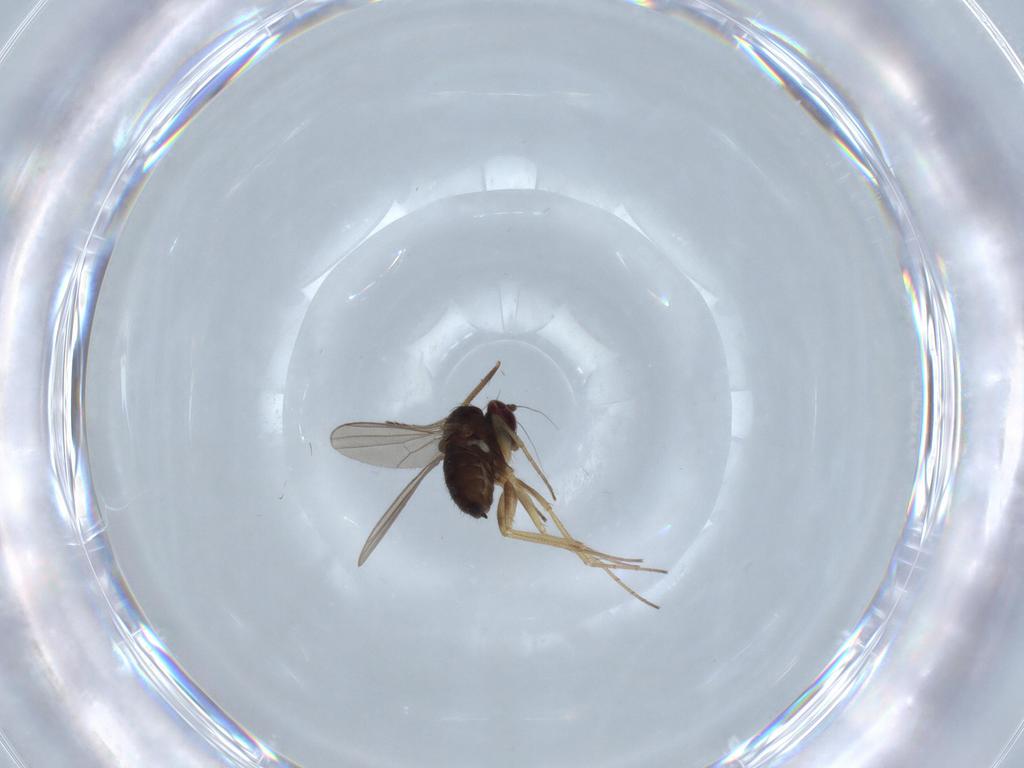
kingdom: Animalia
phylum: Arthropoda
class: Insecta
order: Diptera
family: Dolichopodidae
